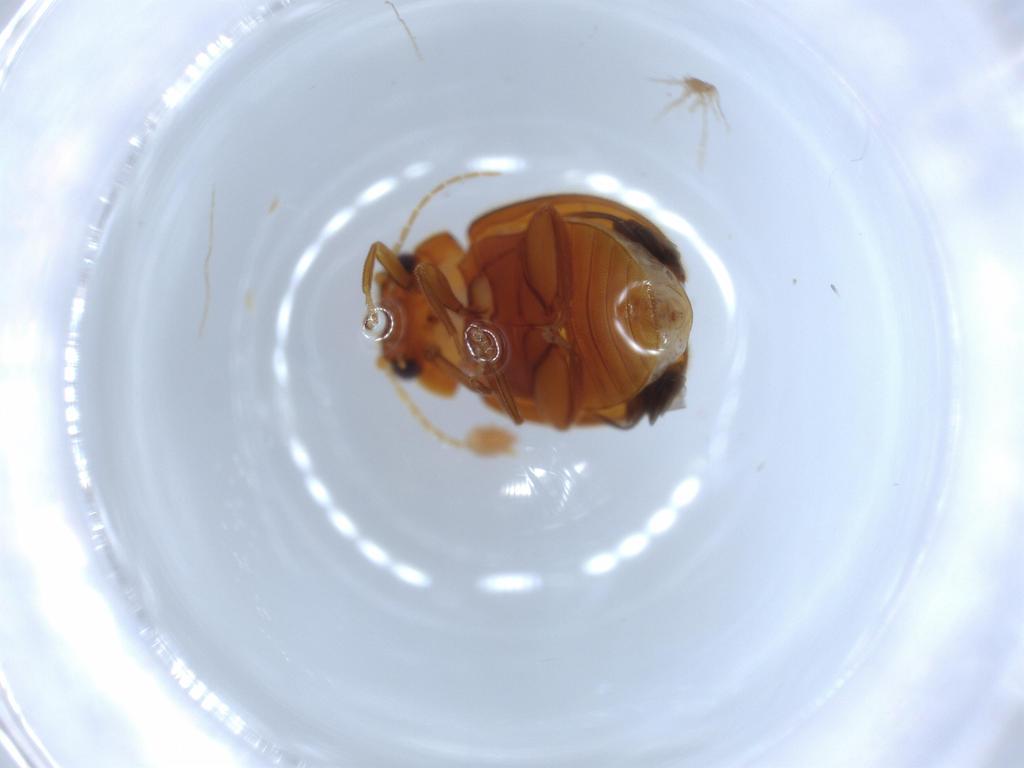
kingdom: Animalia
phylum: Arthropoda
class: Insecta
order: Coleoptera
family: Scirtidae
